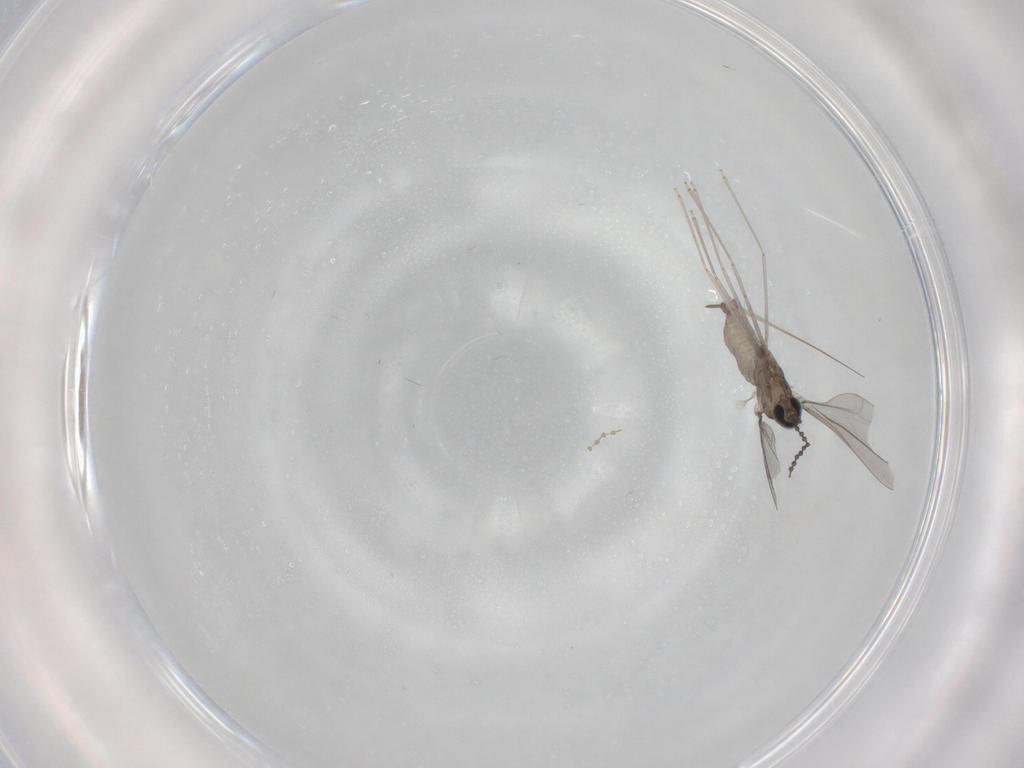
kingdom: Animalia
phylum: Arthropoda
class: Insecta
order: Diptera
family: Cecidomyiidae
